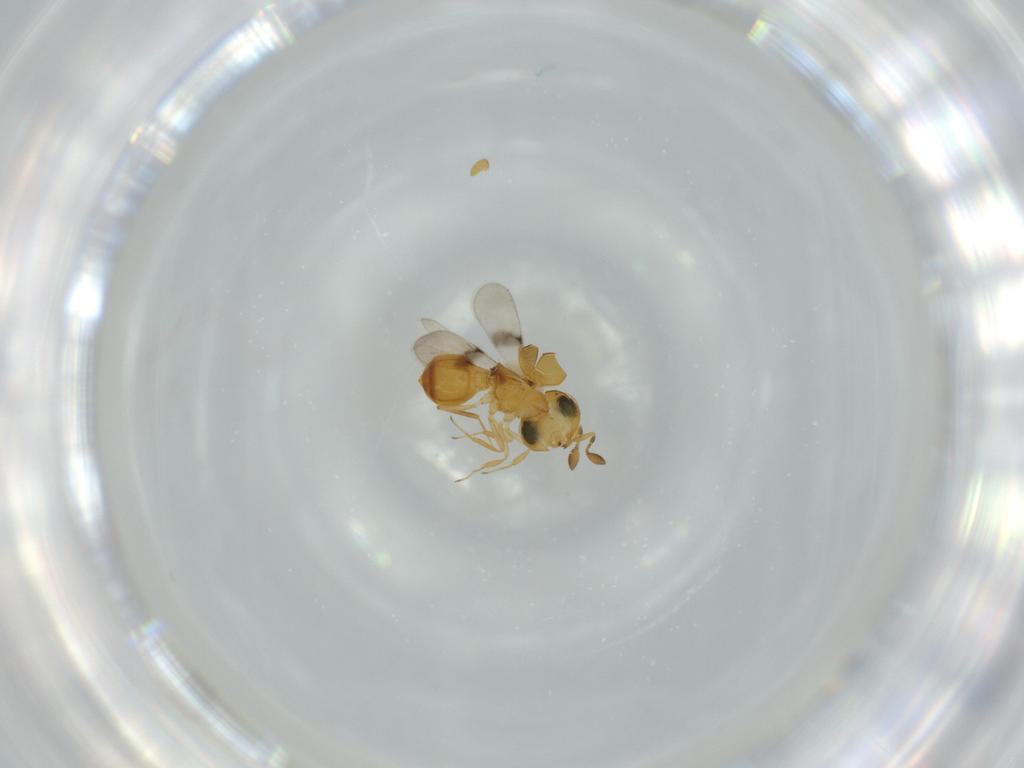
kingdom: Animalia
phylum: Arthropoda
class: Insecta
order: Hymenoptera
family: Scelionidae
